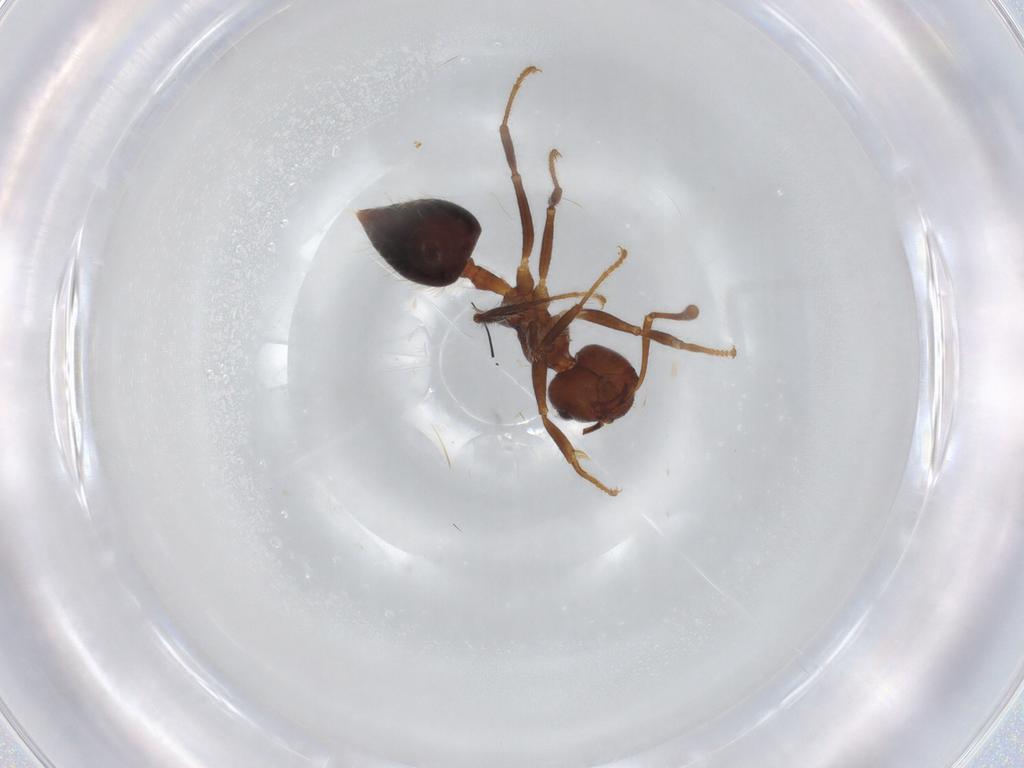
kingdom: Animalia
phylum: Arthropoda
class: Insecta
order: Hymenoptera
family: Formicidae
